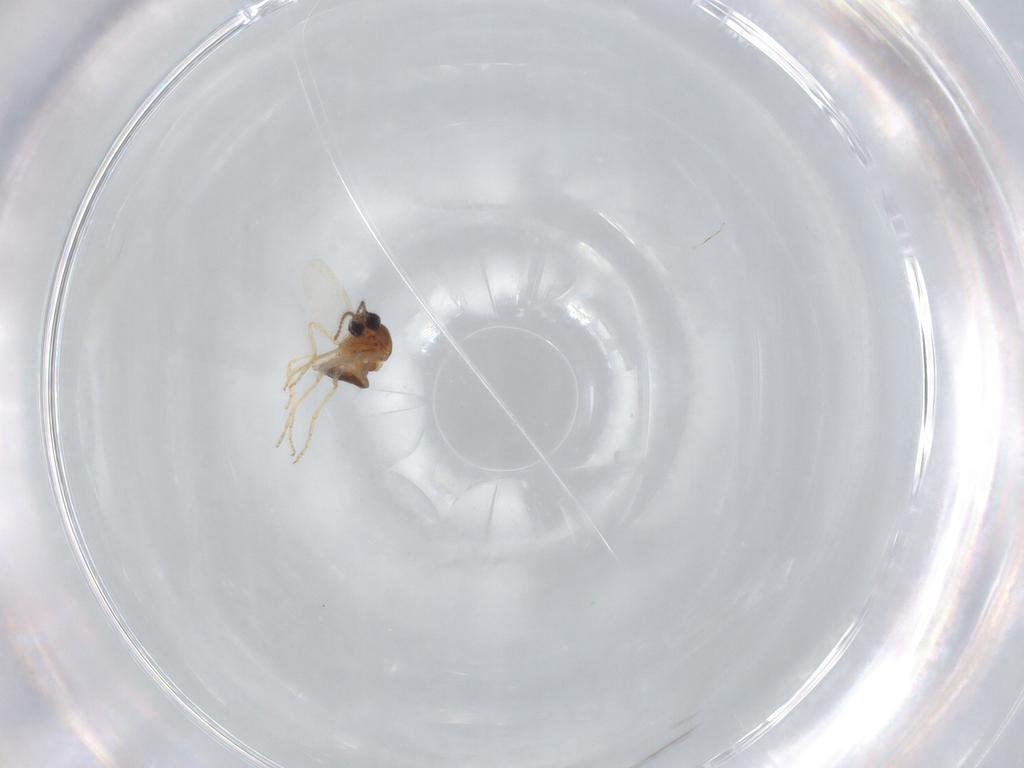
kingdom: Animalia
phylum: Arthropoda
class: Insecta
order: Diptera
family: Ceratopogonidae
